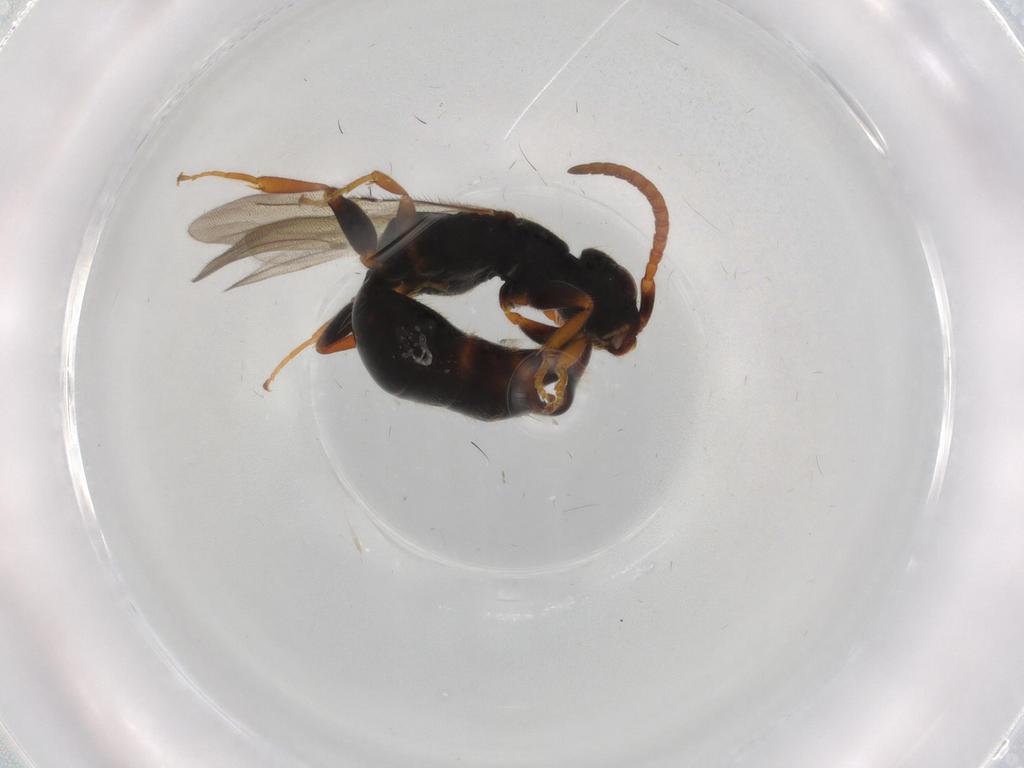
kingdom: Animalia
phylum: Arthropoda
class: Insecta
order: Hymenoptera
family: Bethylidae
